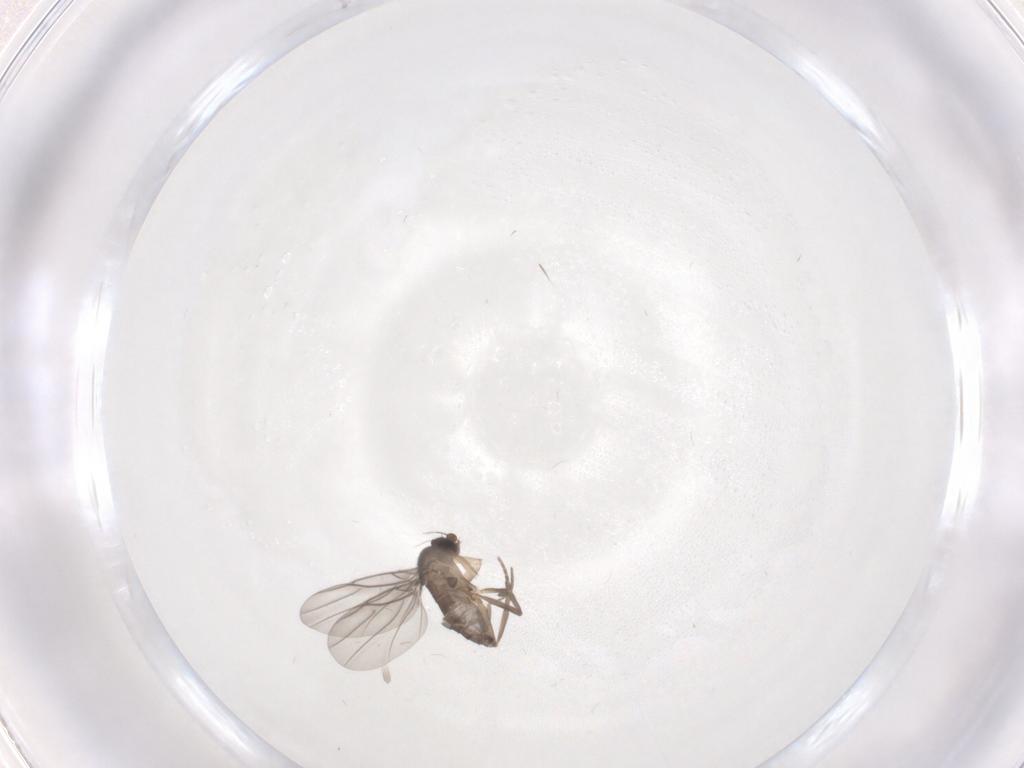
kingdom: Animalia
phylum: Arthropoda
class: Insecta
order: Diptera
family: Phoridae
